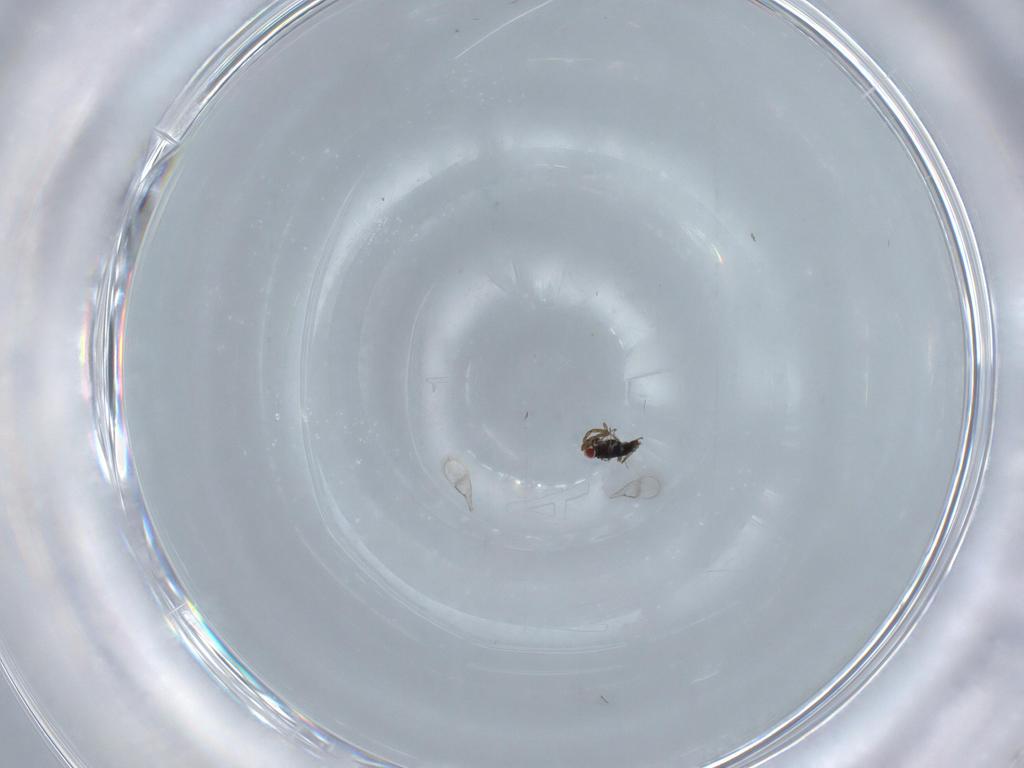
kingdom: Animalia
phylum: Arthropoda
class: Insecta
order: Hymenoptera
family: Azotidae
